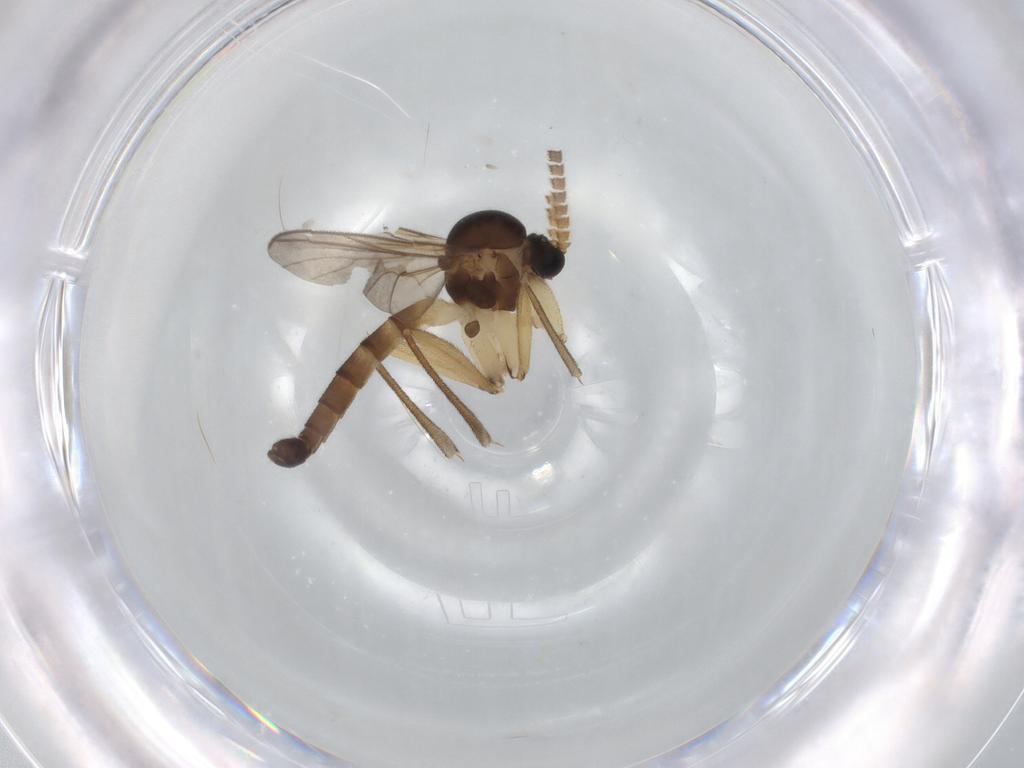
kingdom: Animalia
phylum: Arthropoda
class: Insecta
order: Diptera
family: Mycetophilidae
